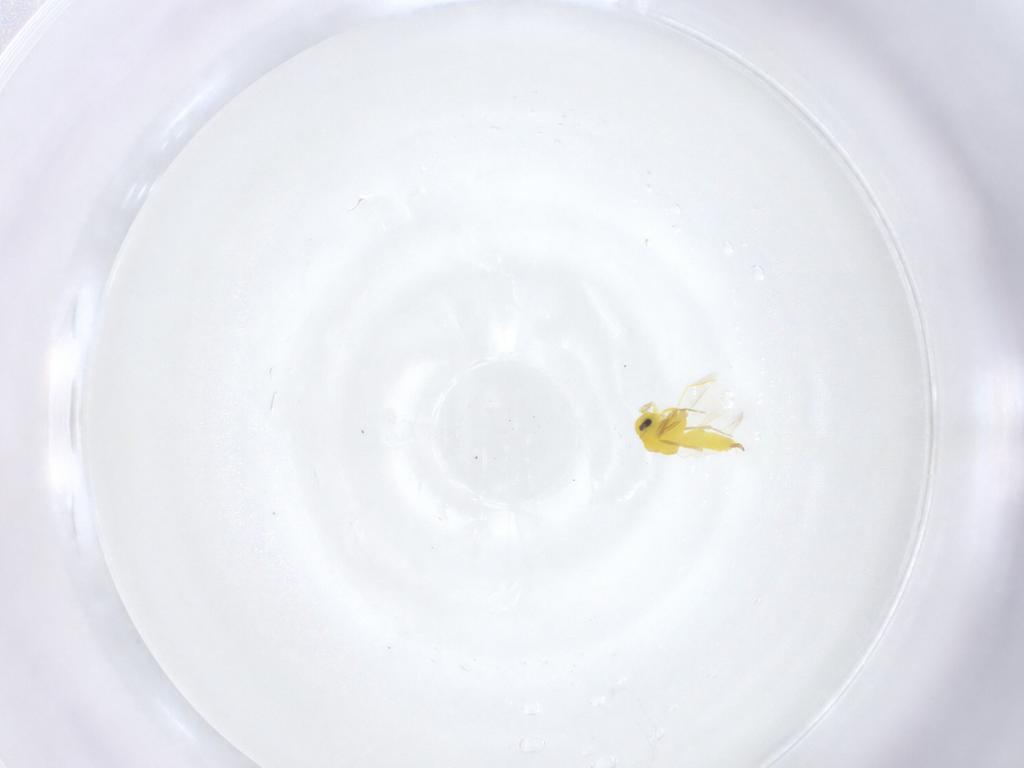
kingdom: Animalia
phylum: Arthropoda
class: Insecta
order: Hemiptera
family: Aleyrodidae
